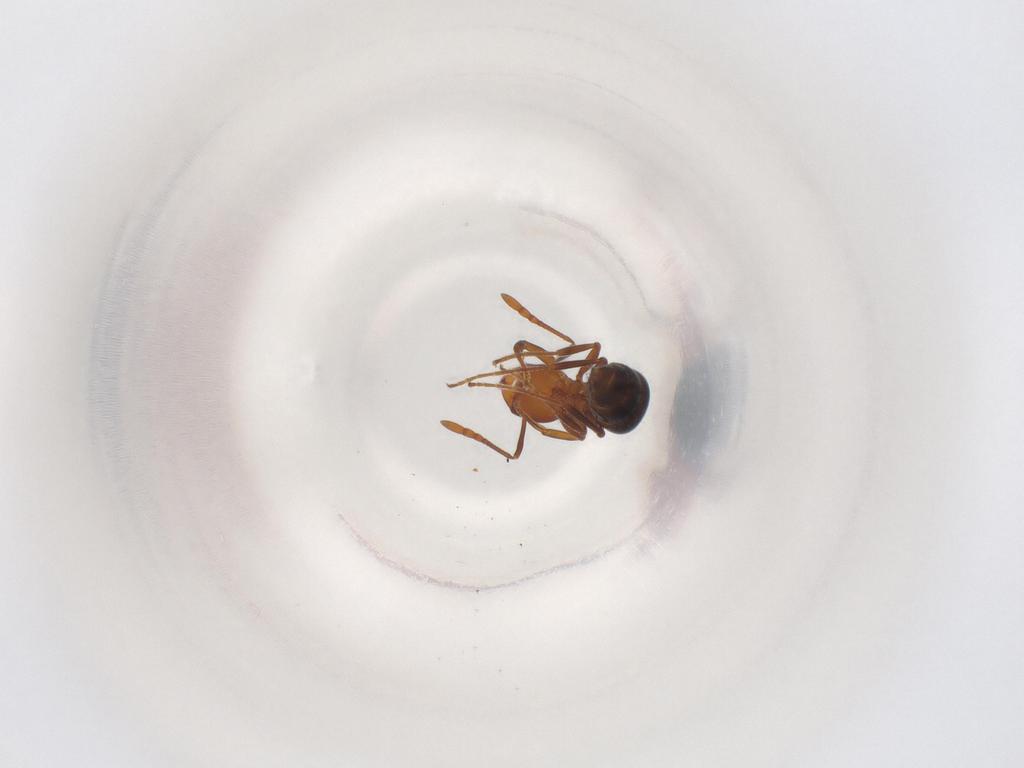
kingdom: Animalia
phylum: Arthropoda
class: Insecta
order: Hymenoptera
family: Formicidae
